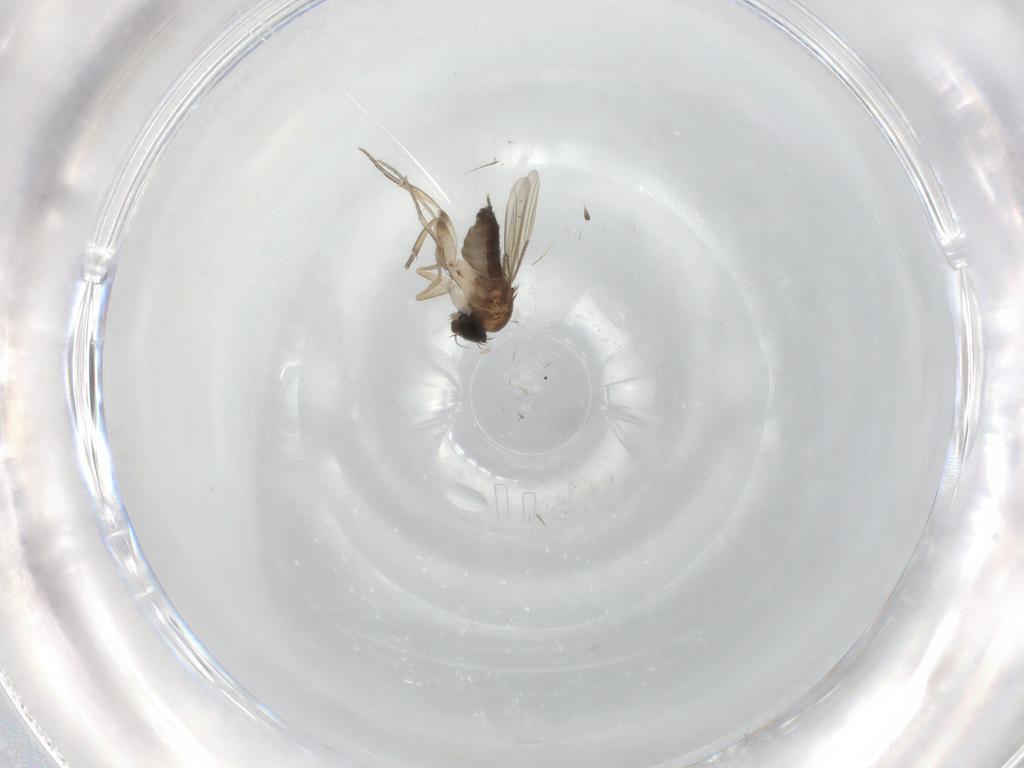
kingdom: Animalia
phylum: Arthropoda
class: Insecta
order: Diptera
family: Phoridae
